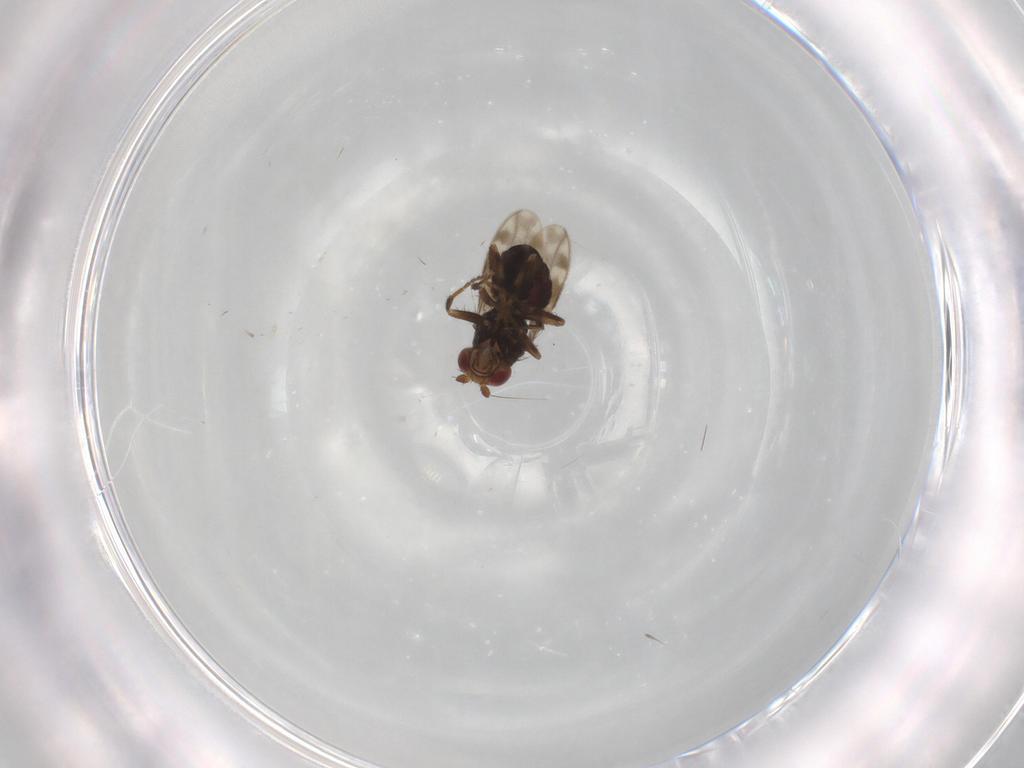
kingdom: Animalia
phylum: Arthropoda
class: Insecta
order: Diptera
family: Sphaeroceridae
